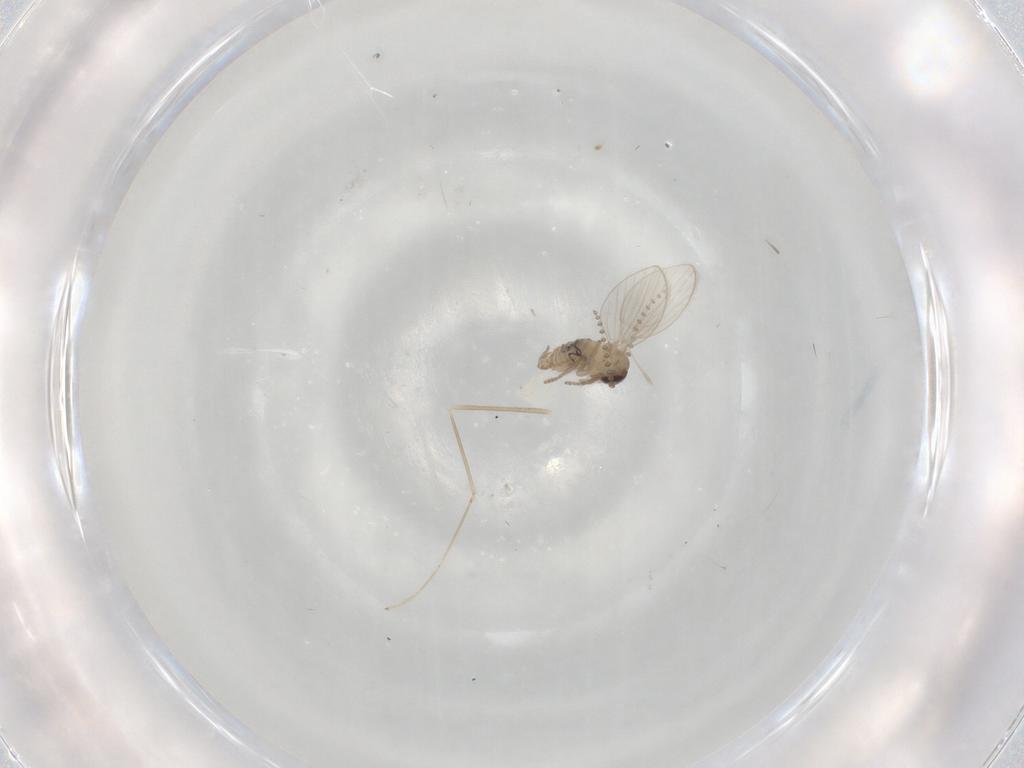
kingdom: Animalia
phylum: Arthropoda
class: Insecta
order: Diptera
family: Psychodidae
